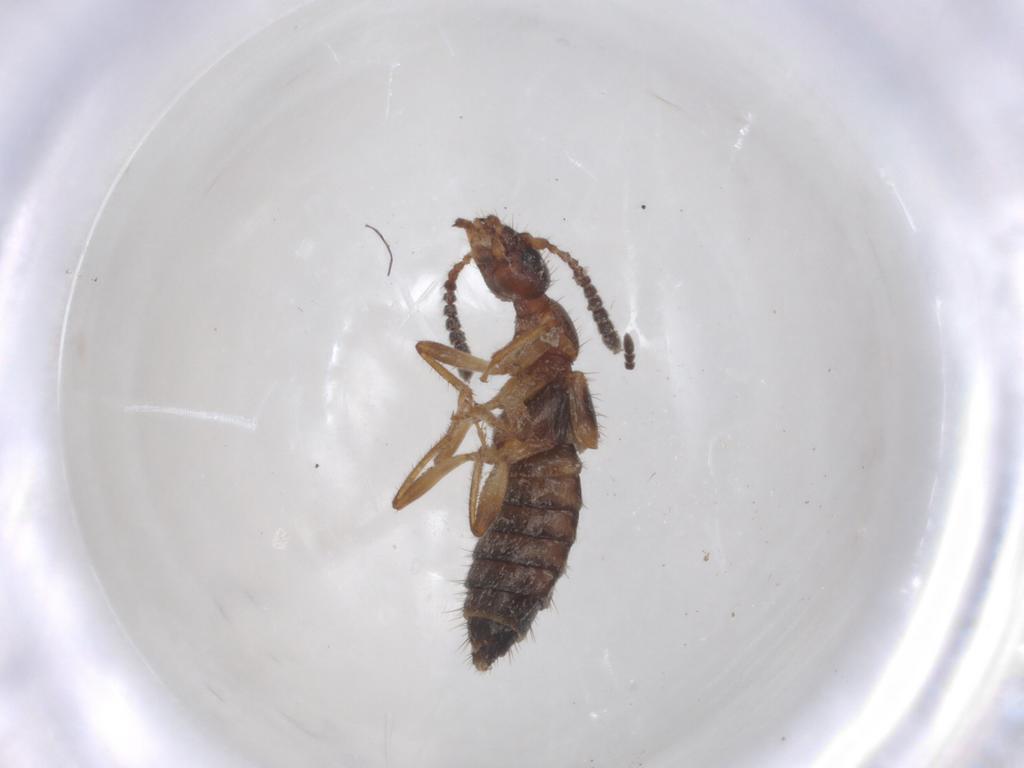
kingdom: Animalia
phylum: Arthropoda
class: Insecta
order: Coleoptera
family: Staphylinidae
